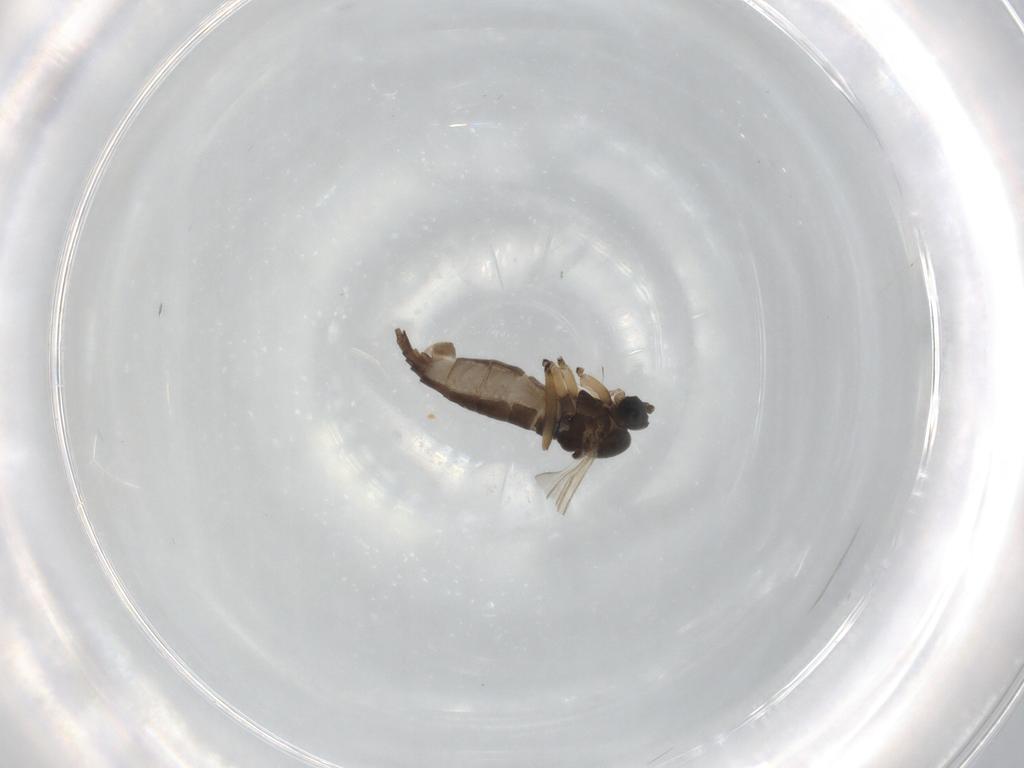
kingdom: Animalia
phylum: Arthropoda
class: Insecta
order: Diptera
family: Sciaridae
